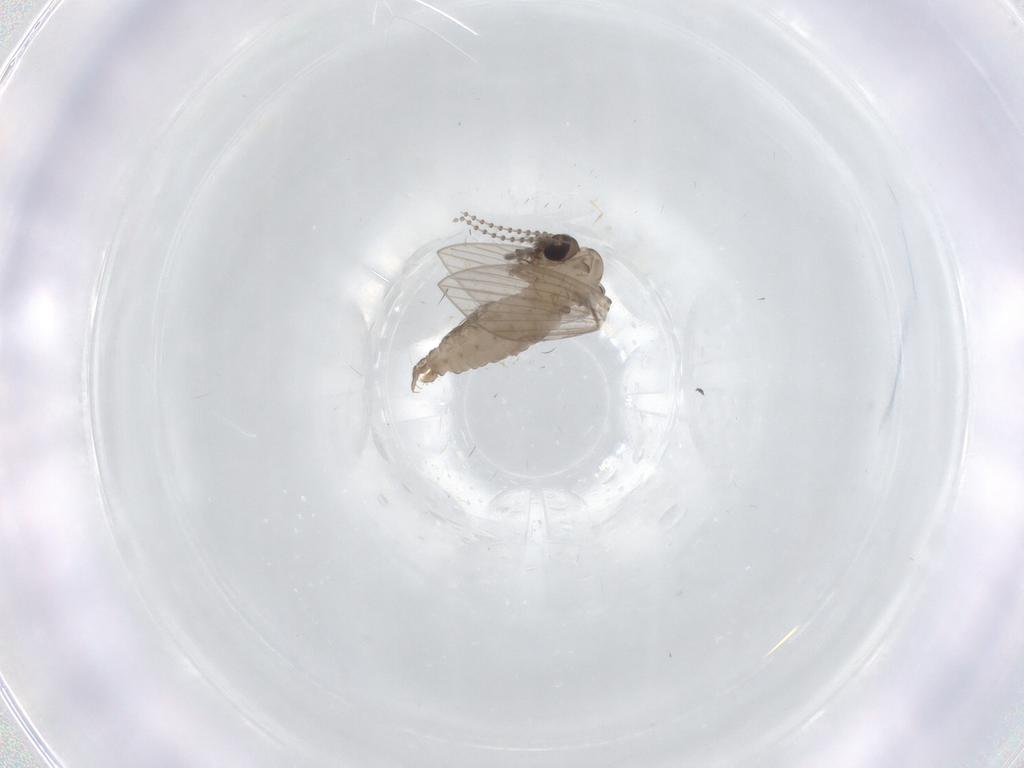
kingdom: Animalia
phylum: Arthropoda
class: Insecta
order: Diptera
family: Psychodidae
